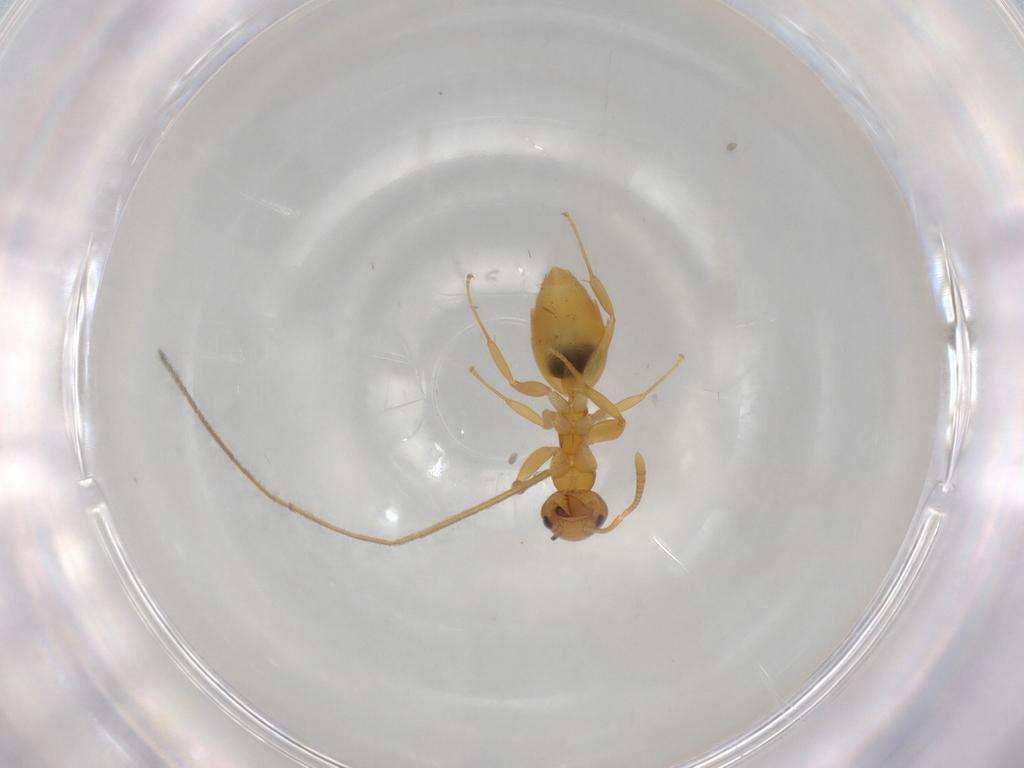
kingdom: Animalia
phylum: Arthropoda
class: Insecta
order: Hymenoptera
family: Formicidae
